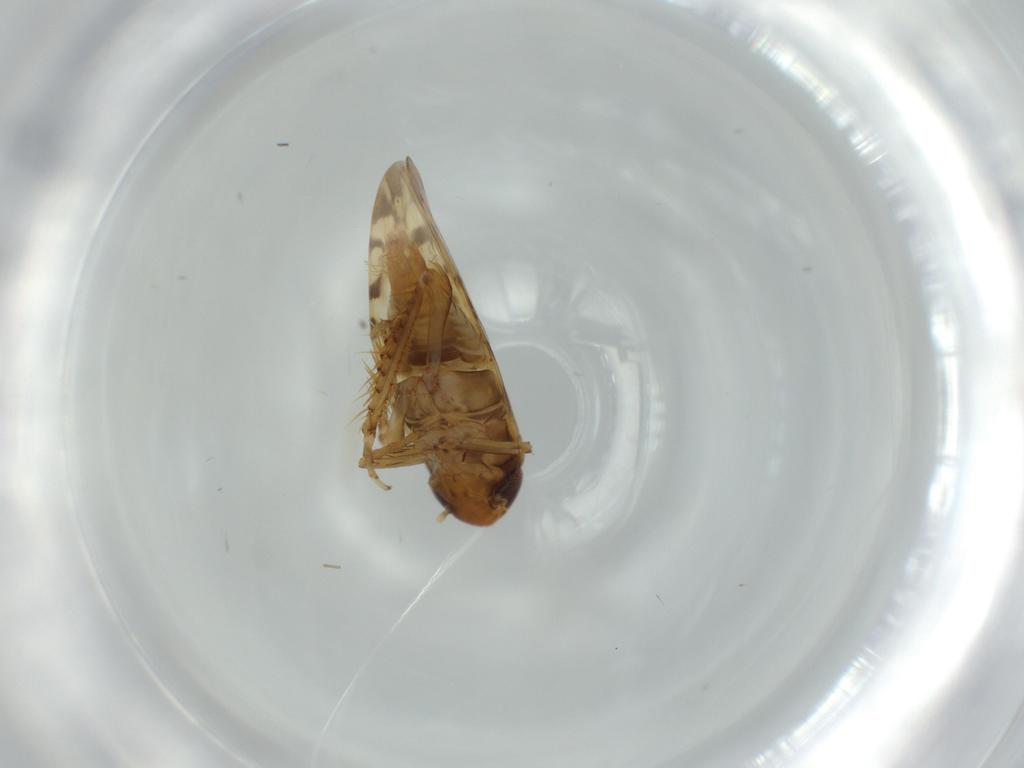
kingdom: Animalia
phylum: Arthropoda
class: Insecta
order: Hemiptera
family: Cicadellidae
